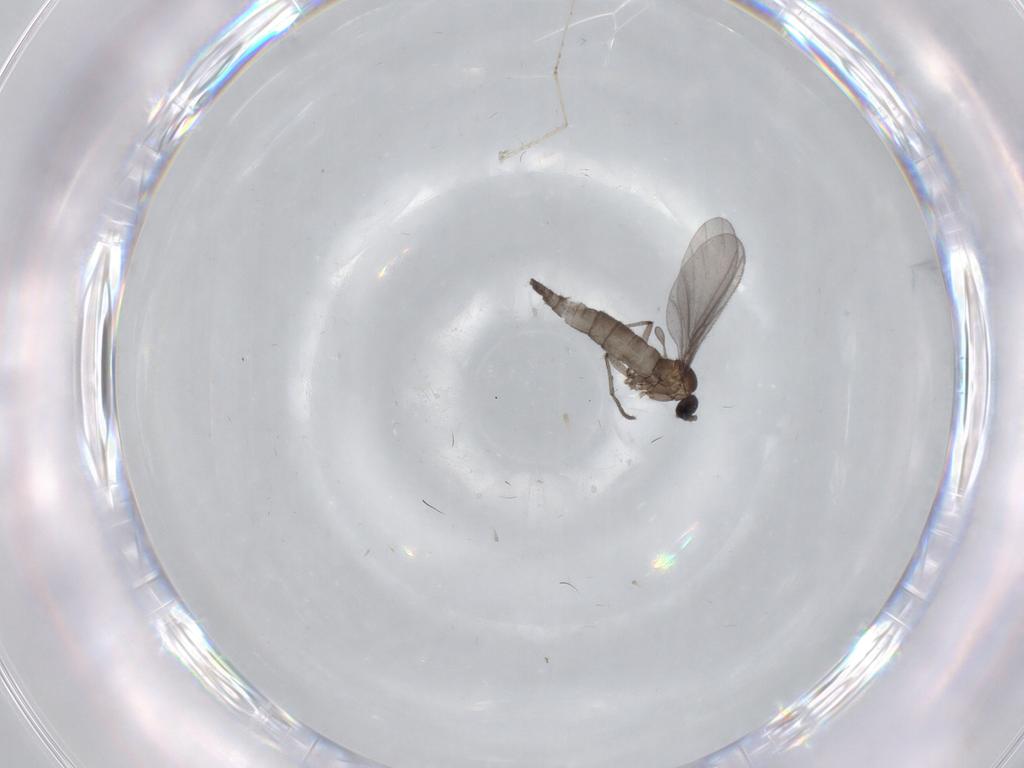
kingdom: Animalia
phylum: Arthropoda
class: Insecta
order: Diptera
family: Sciaridae
